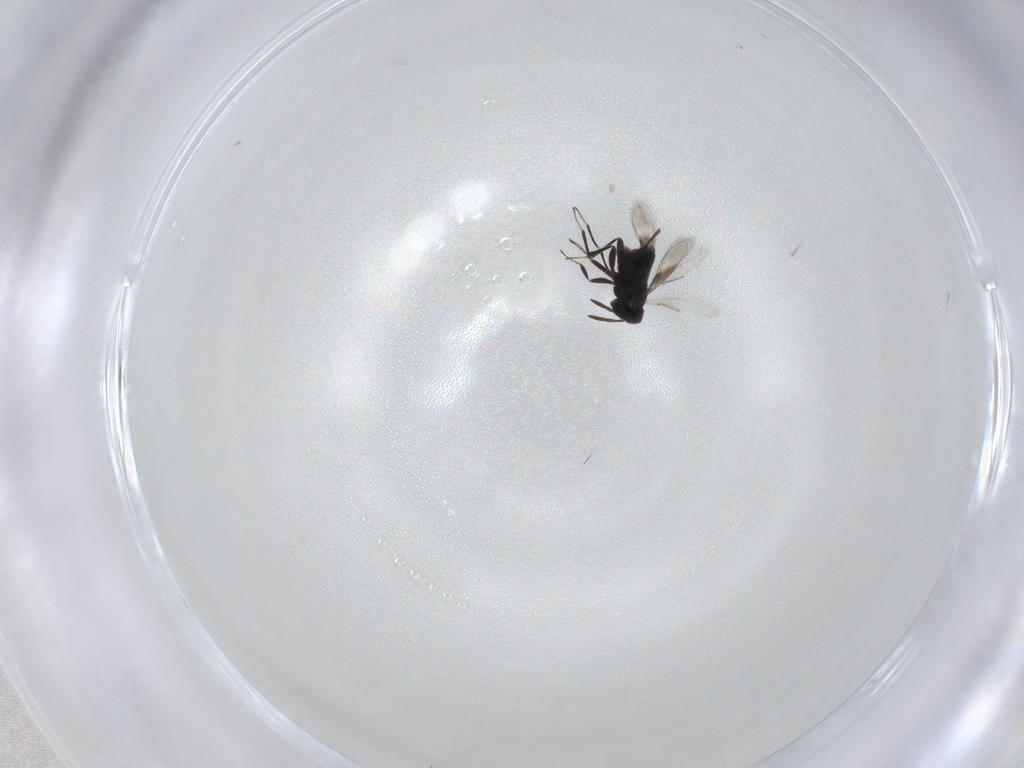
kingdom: Animalia
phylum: Arthropoda
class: Insecta
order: Hymenoptera
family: Azotidae
